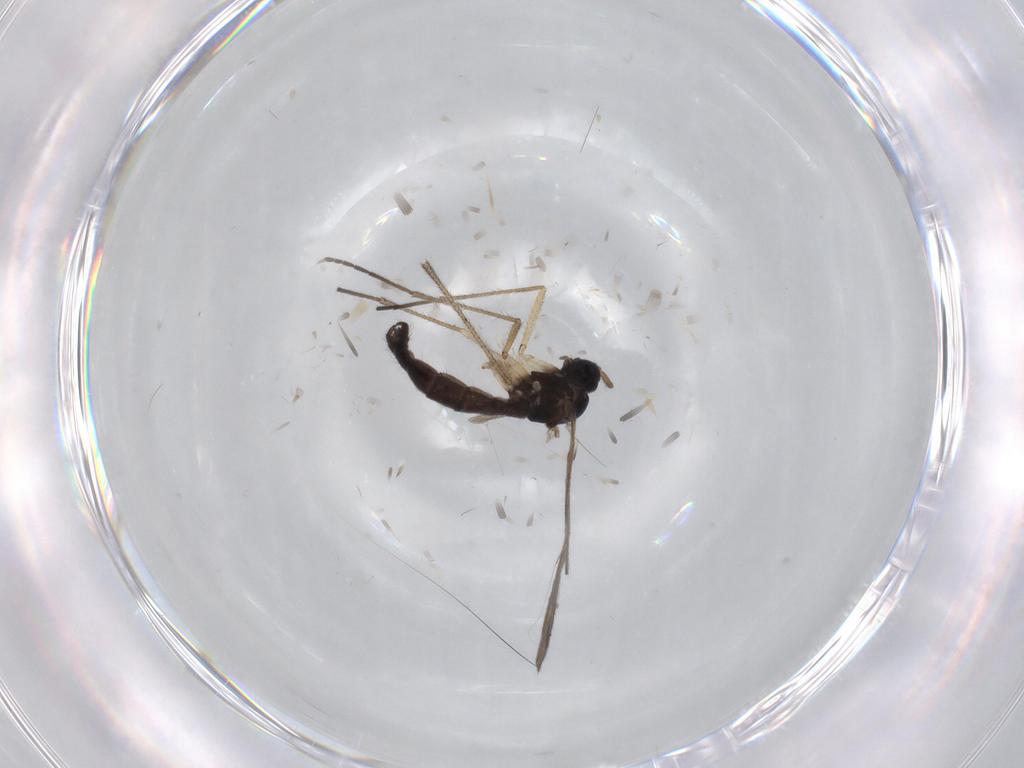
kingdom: Animalia
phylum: Arthropoda
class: Insecta
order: Diptera
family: Sciaridae
